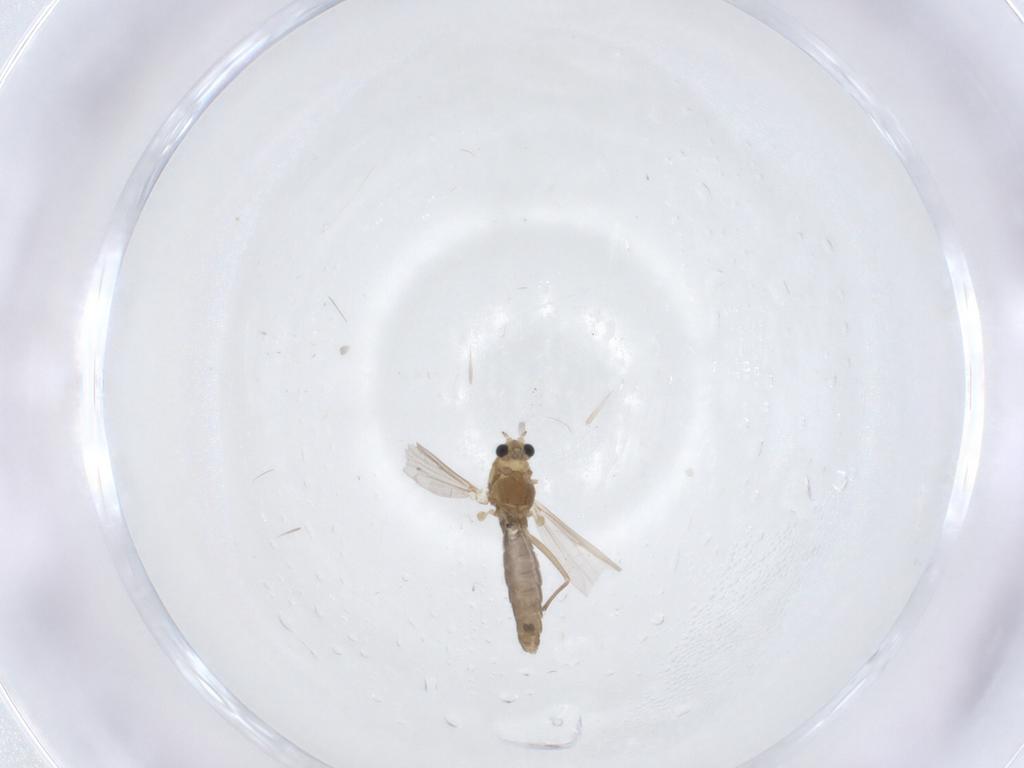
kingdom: Animalia
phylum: Arthropoda
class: Insecta
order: Diptera
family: Chironomidae
